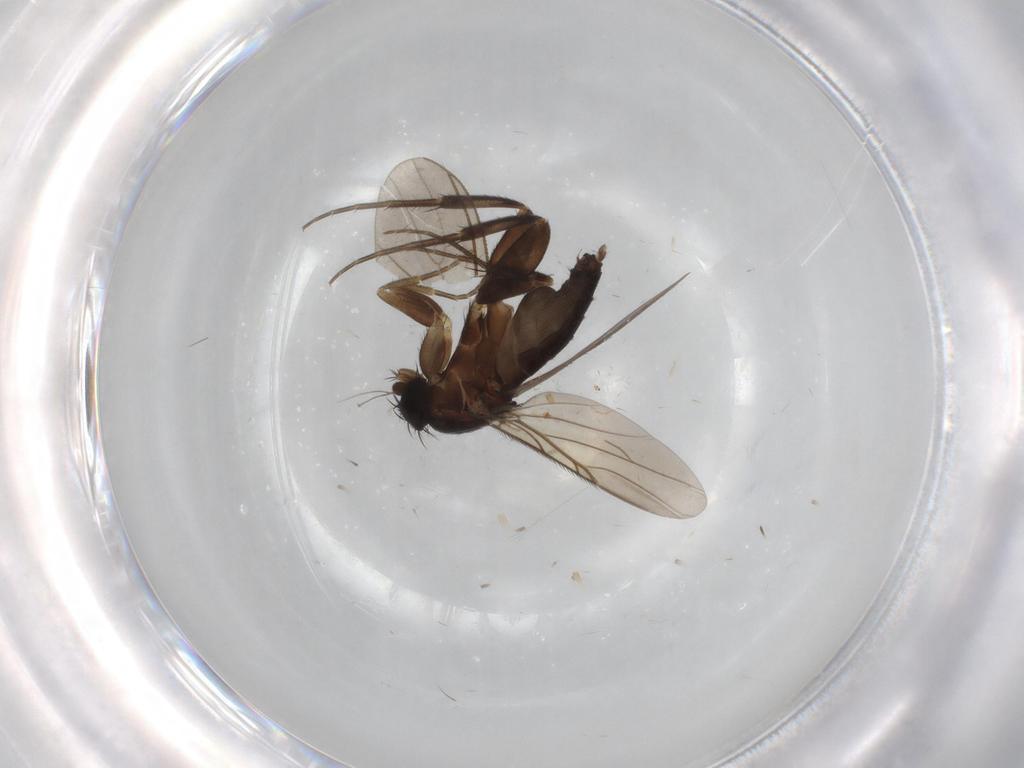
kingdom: Animalia
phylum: Arthropoda
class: Insecta
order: Diptera
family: Phoridae
